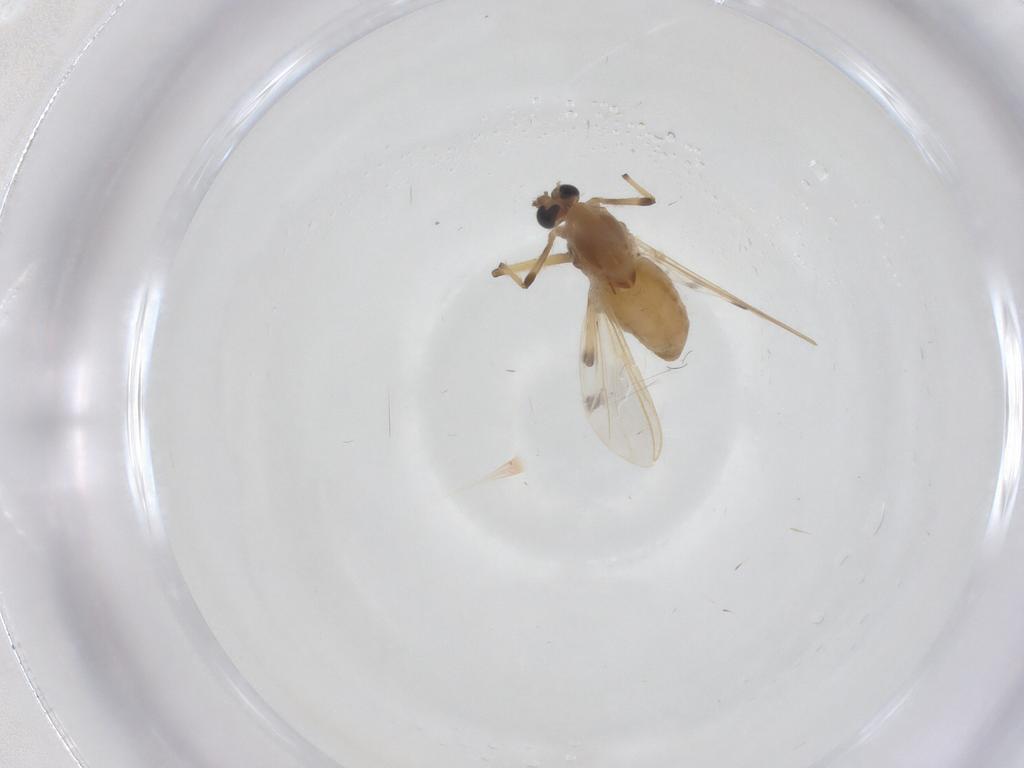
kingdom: Animalia
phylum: Arthropoda
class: Insecta
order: Diptera
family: Chironomidae
